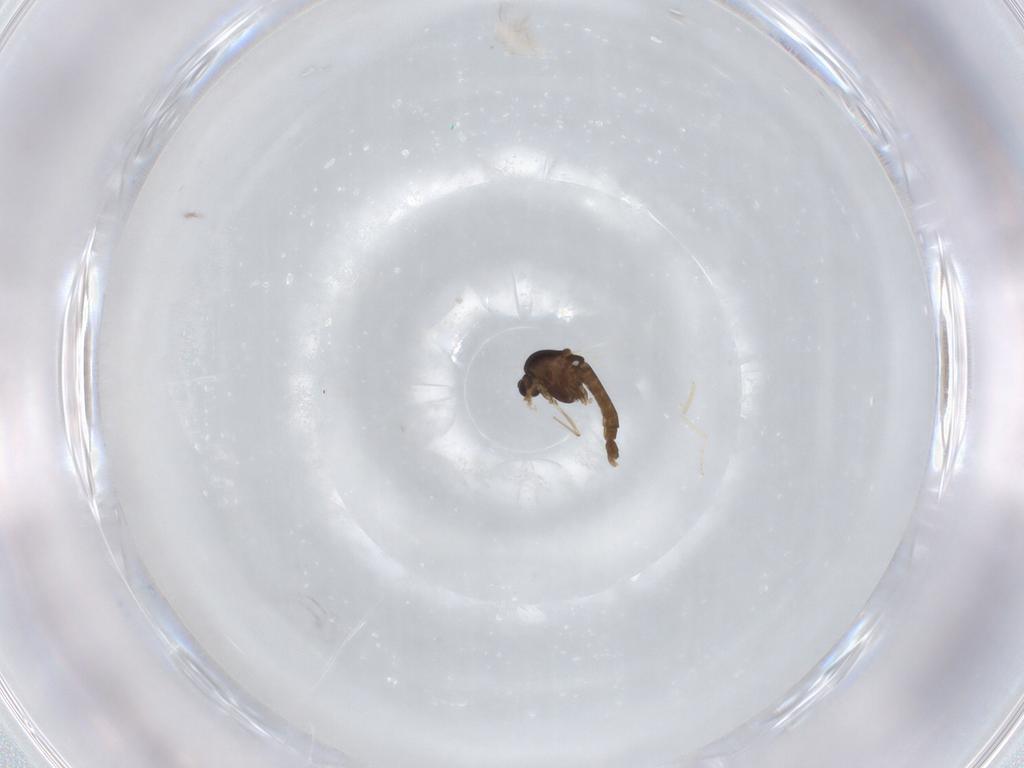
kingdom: Animalia
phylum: Arthropoda
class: Insecta
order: Diptera
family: Chironomidae
